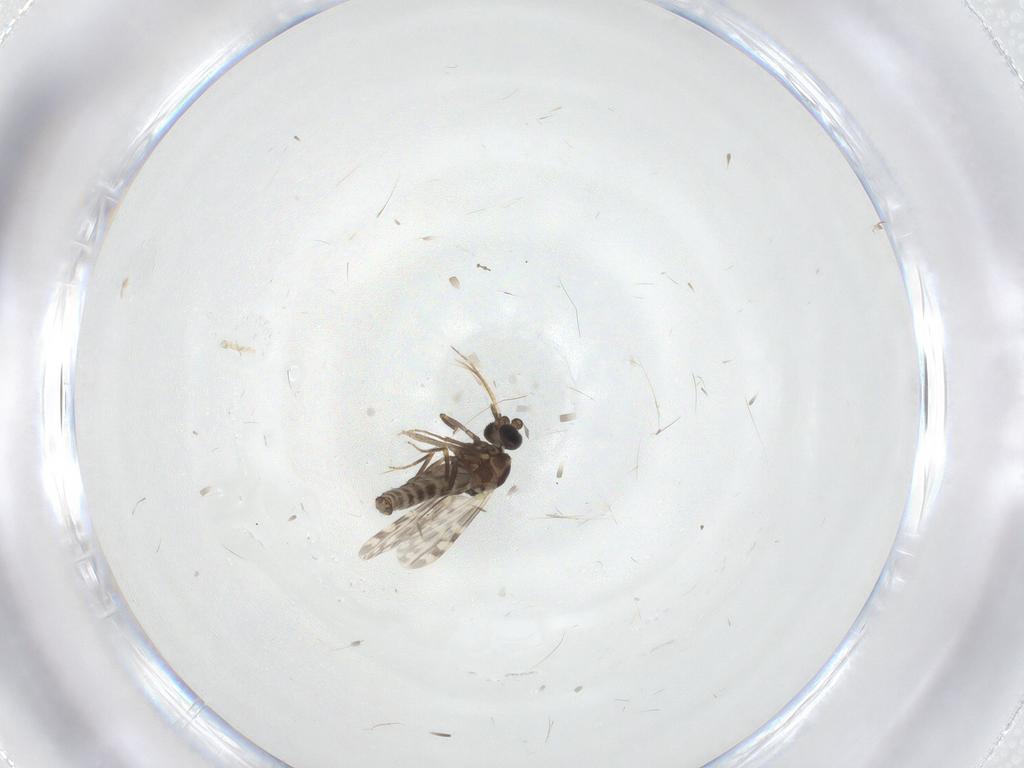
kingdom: Animalia
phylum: Arthropoda
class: Insecta
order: Diptera
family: Ceratopogonidae
